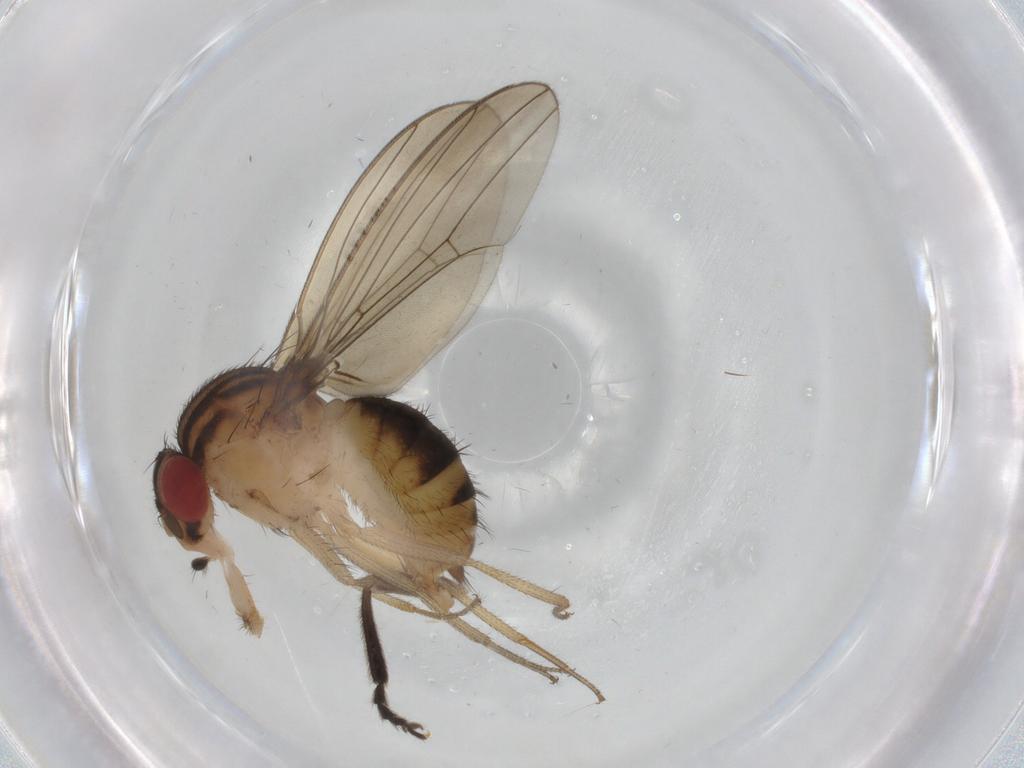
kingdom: Animalia
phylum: Arthropoda
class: Insecta
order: Diptera
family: Drosophilidae
